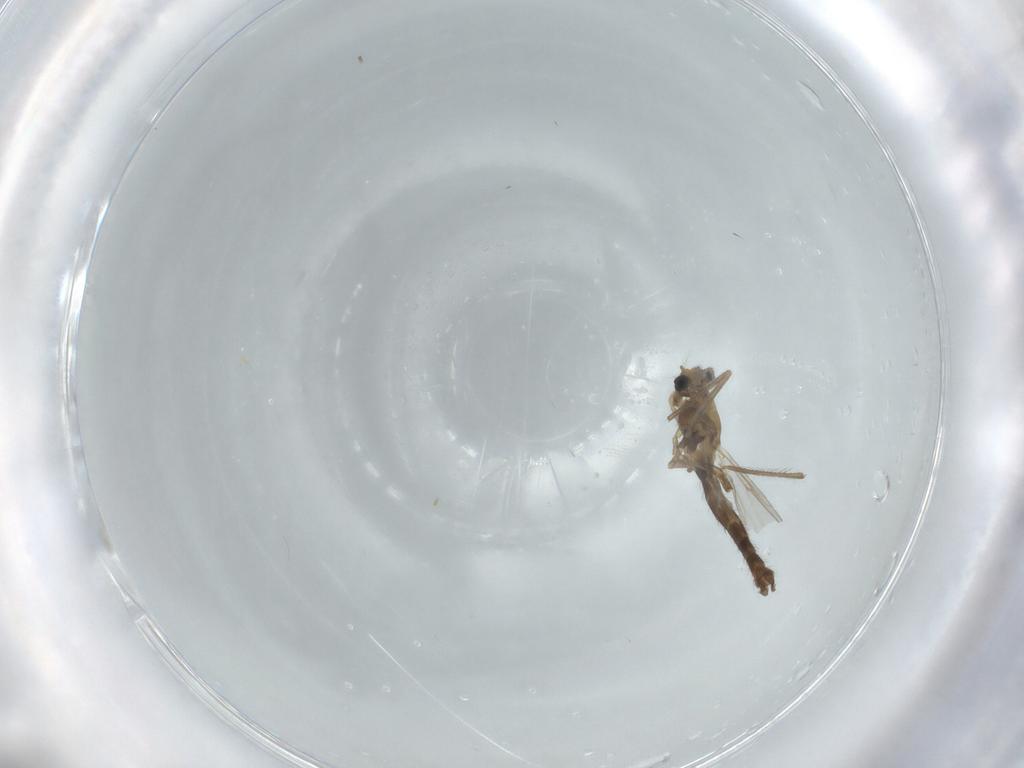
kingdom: Animalia
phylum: Arthropoda
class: Insecta
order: Diptera
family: Chironomidae
